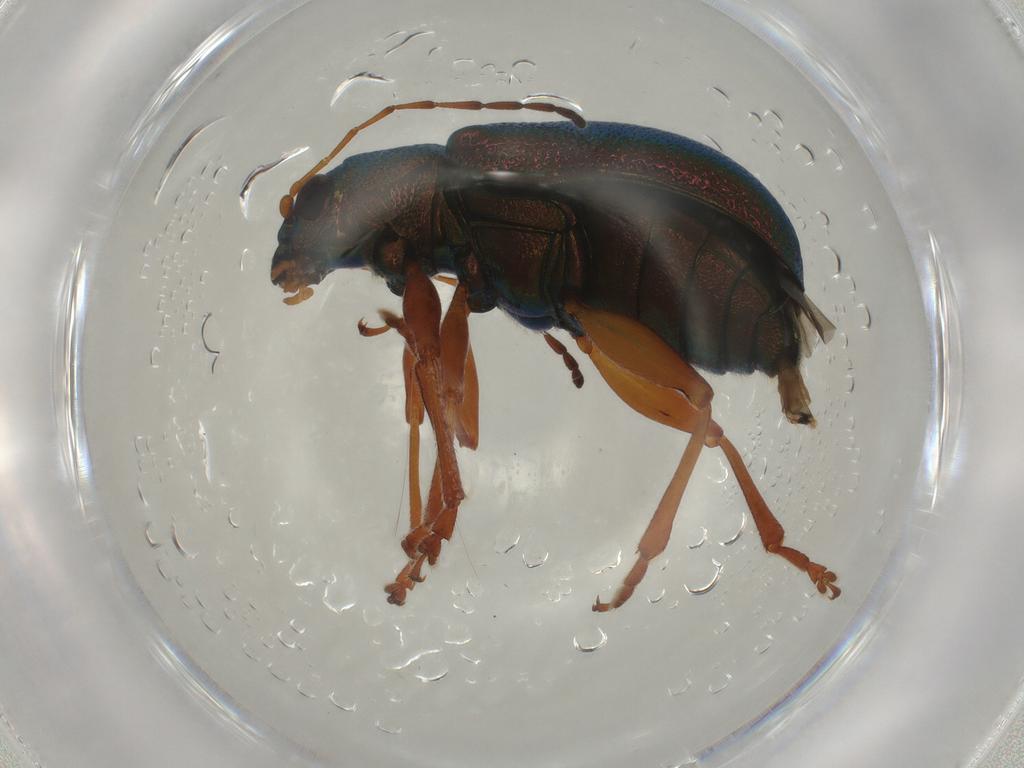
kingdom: Animalia
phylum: Arthropoda
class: Insecta
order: Coleoptera
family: Chrysomelidae
